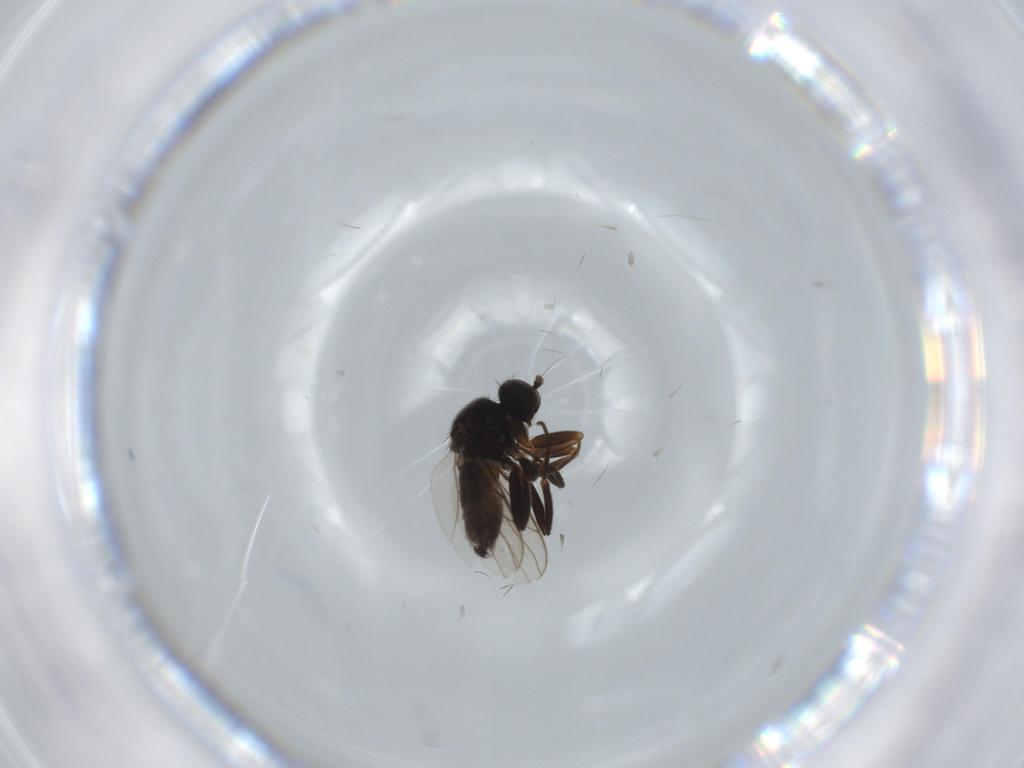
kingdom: Animalia
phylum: Arthropoda
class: Insecta
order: Diptera
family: Hybotidae
